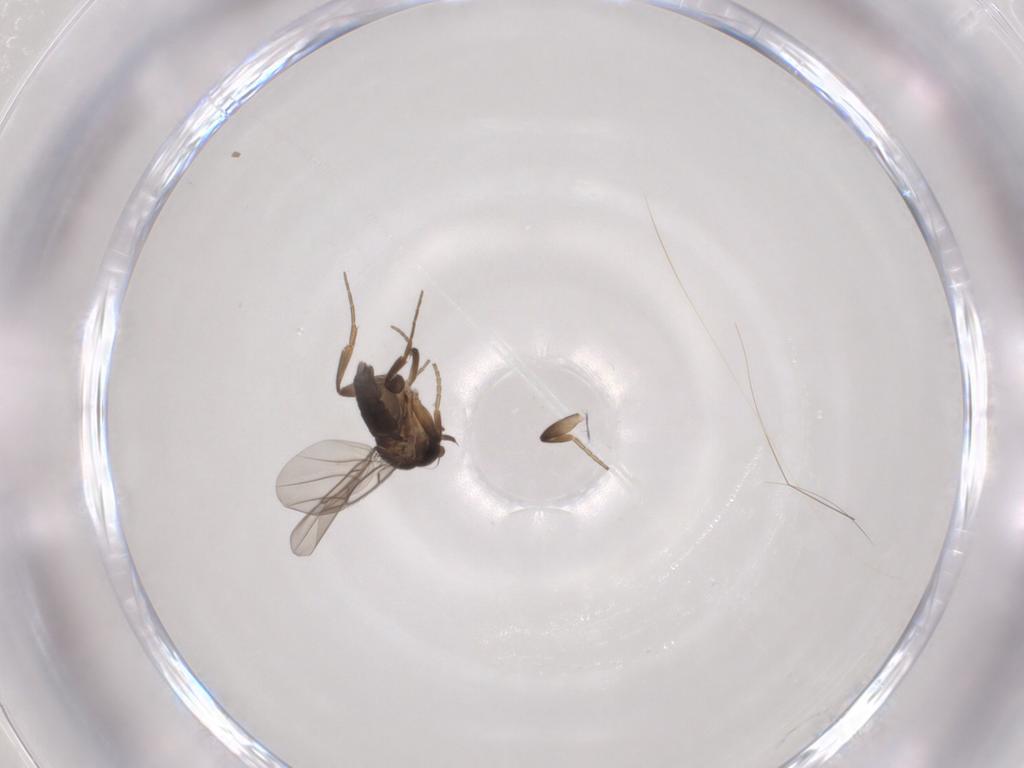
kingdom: Animalia
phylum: Arthropoda
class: Insecta
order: Diptera
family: Phoridae
